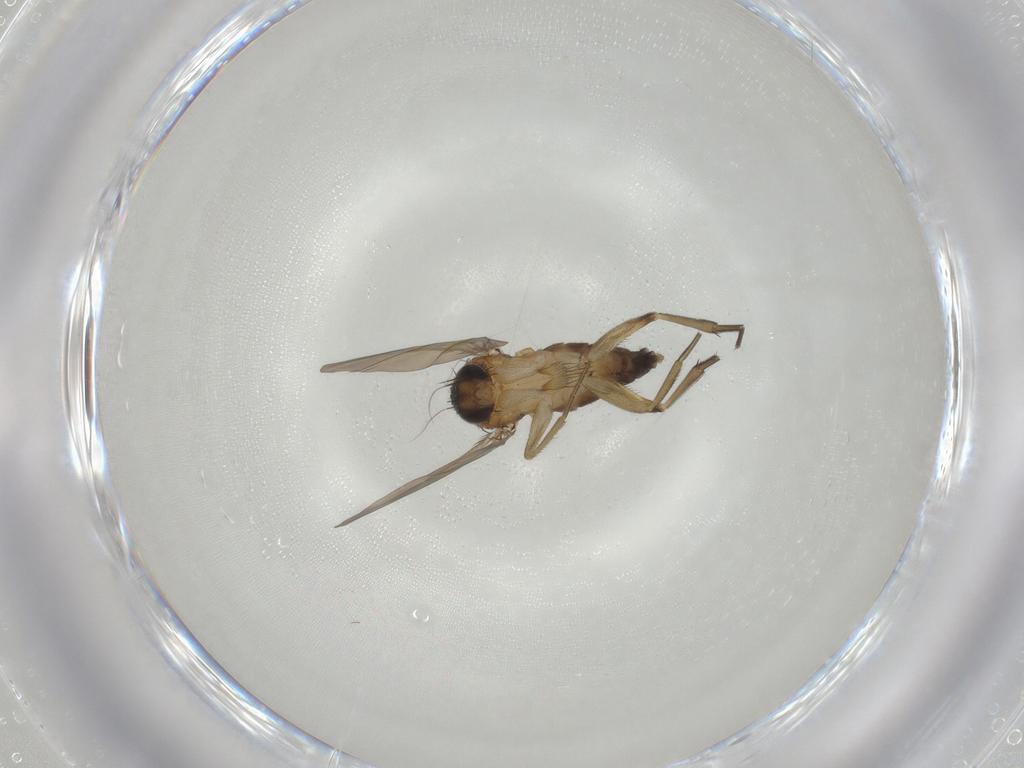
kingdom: Animalia
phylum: Arthropoda
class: Insecta
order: Diptera
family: Phoridae
